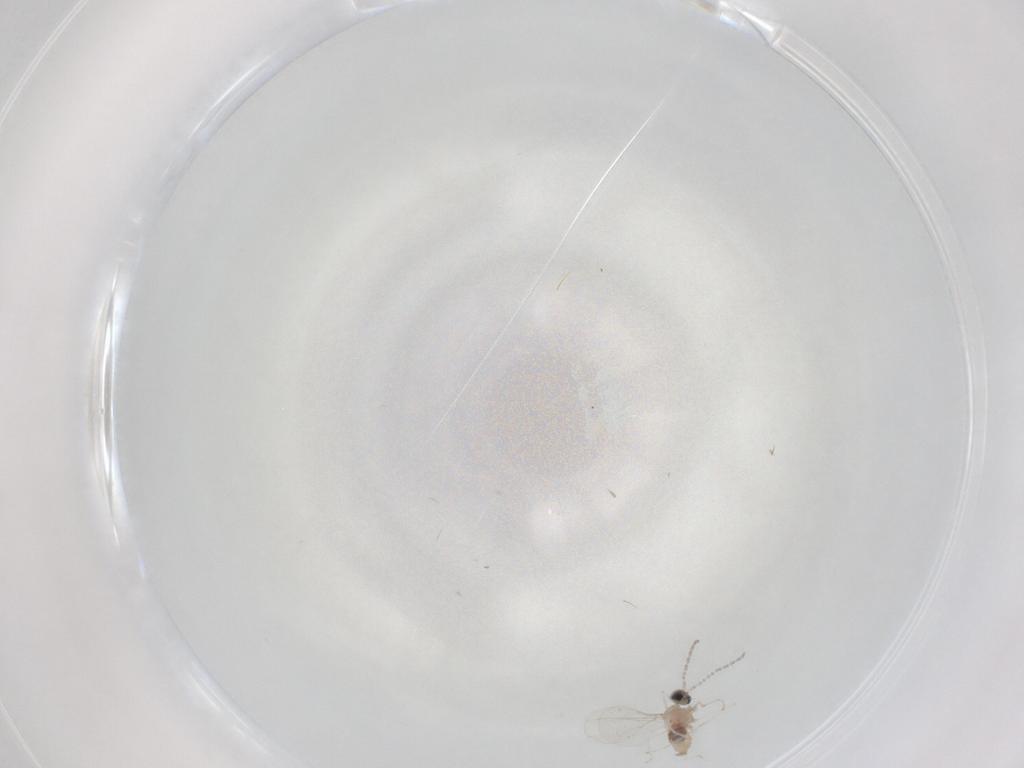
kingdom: Animalia
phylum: Arthropoda
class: Insecta
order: Diptera
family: Cecidomyiidae
